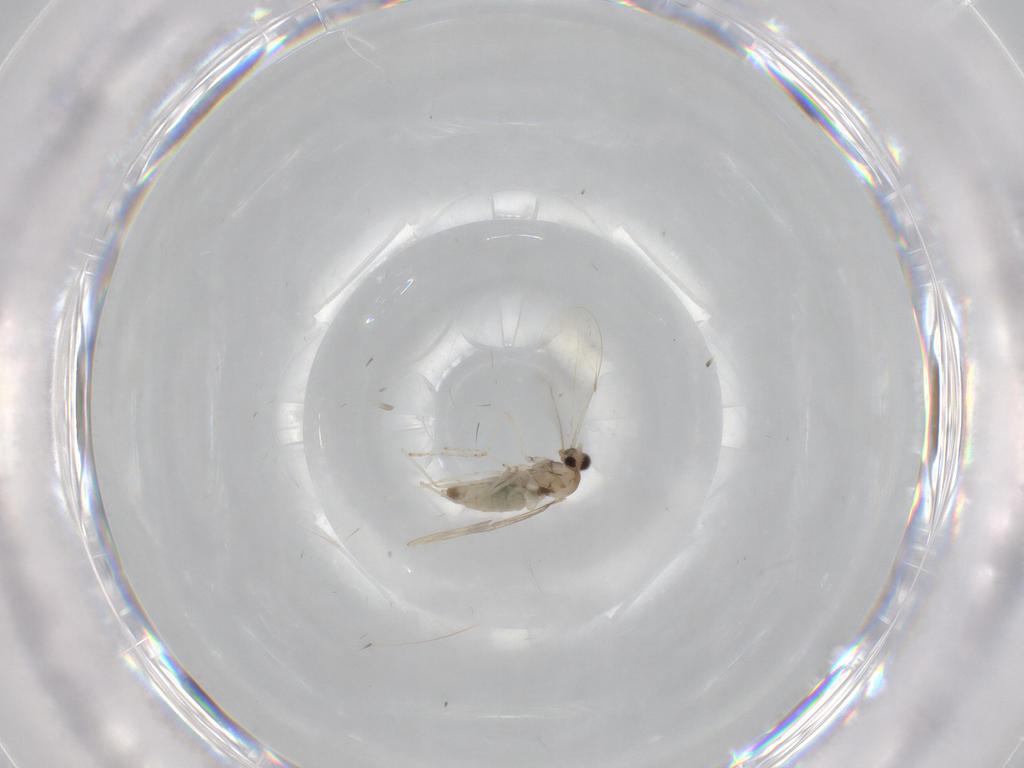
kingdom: Animalia
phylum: Arthropoda
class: Insecta
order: Diptera
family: Cecidomyiidae
